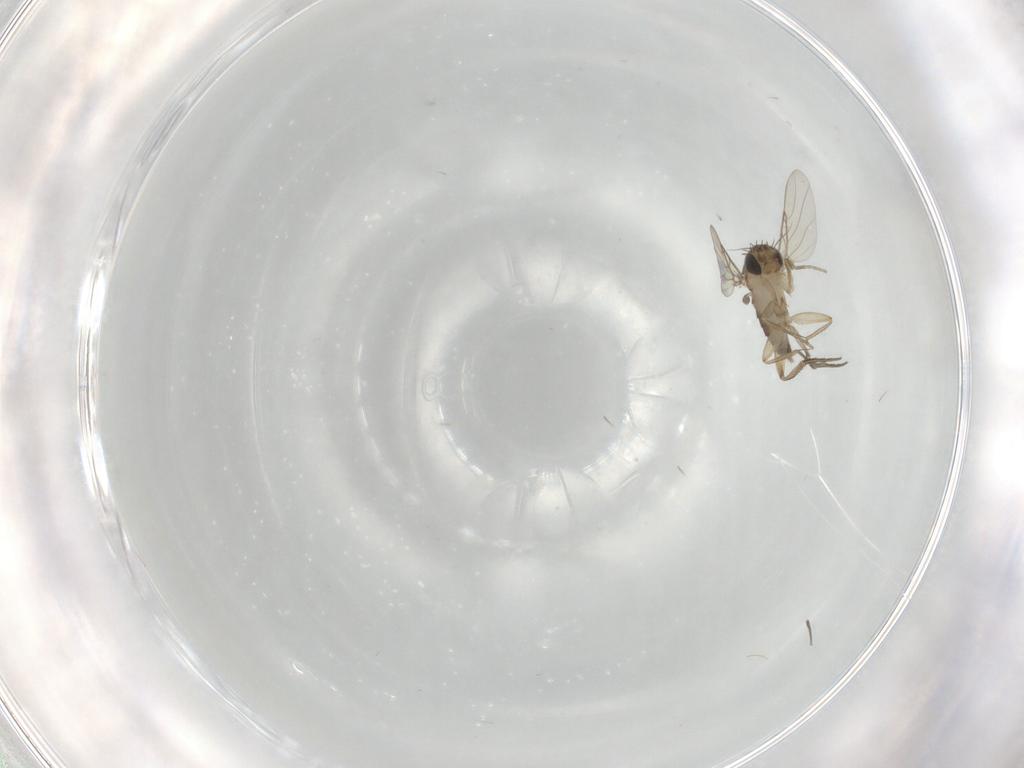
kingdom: Animalia
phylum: Arthropoda
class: Insecta
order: Diptera
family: Phoridae
